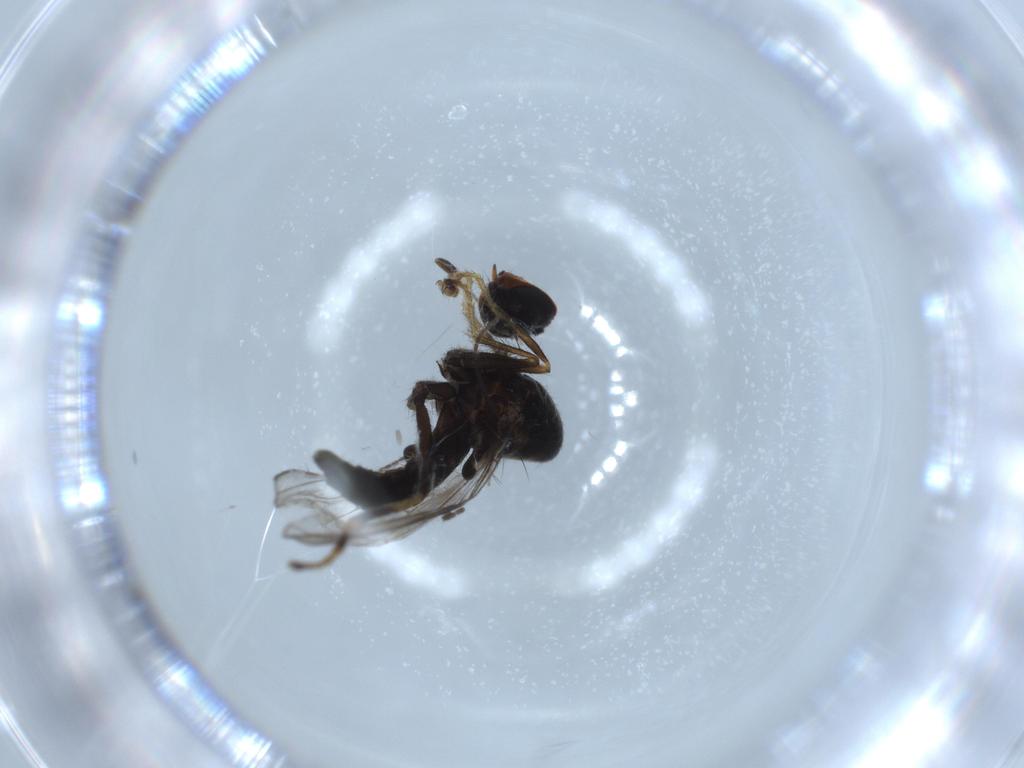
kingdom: Animalia
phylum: Arthropoda
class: Insecta
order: Diptera
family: Hybotidae
